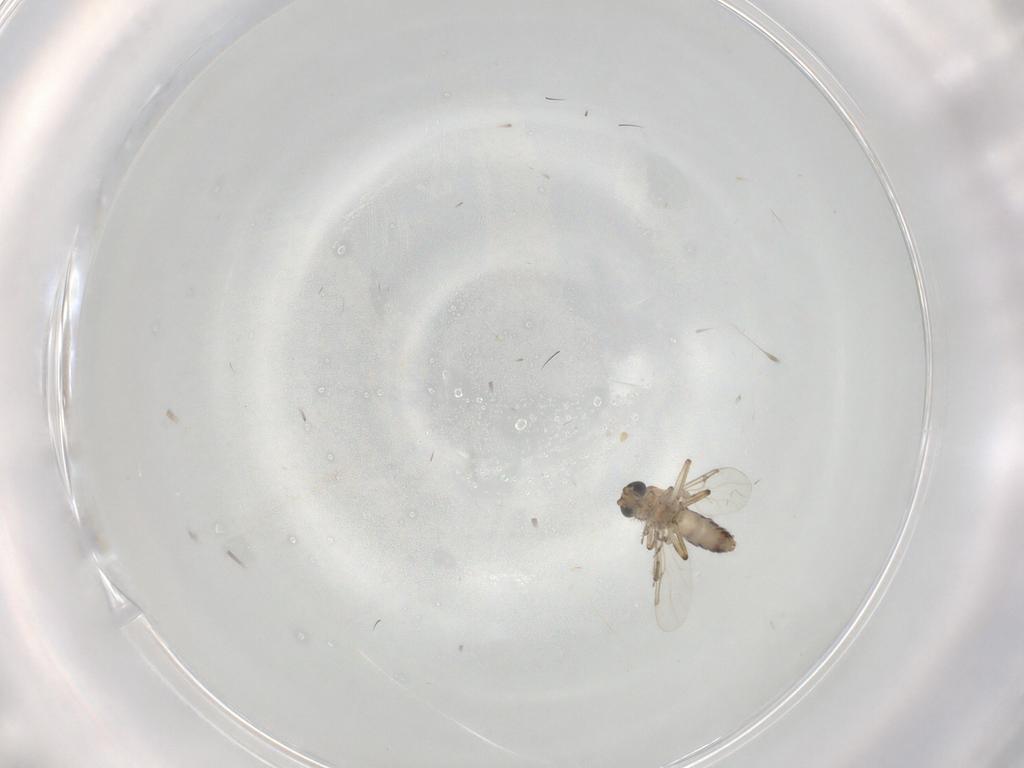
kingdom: Animalia
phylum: Arthropoda
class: Insecta
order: Diptera
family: Ceratopogonidae
